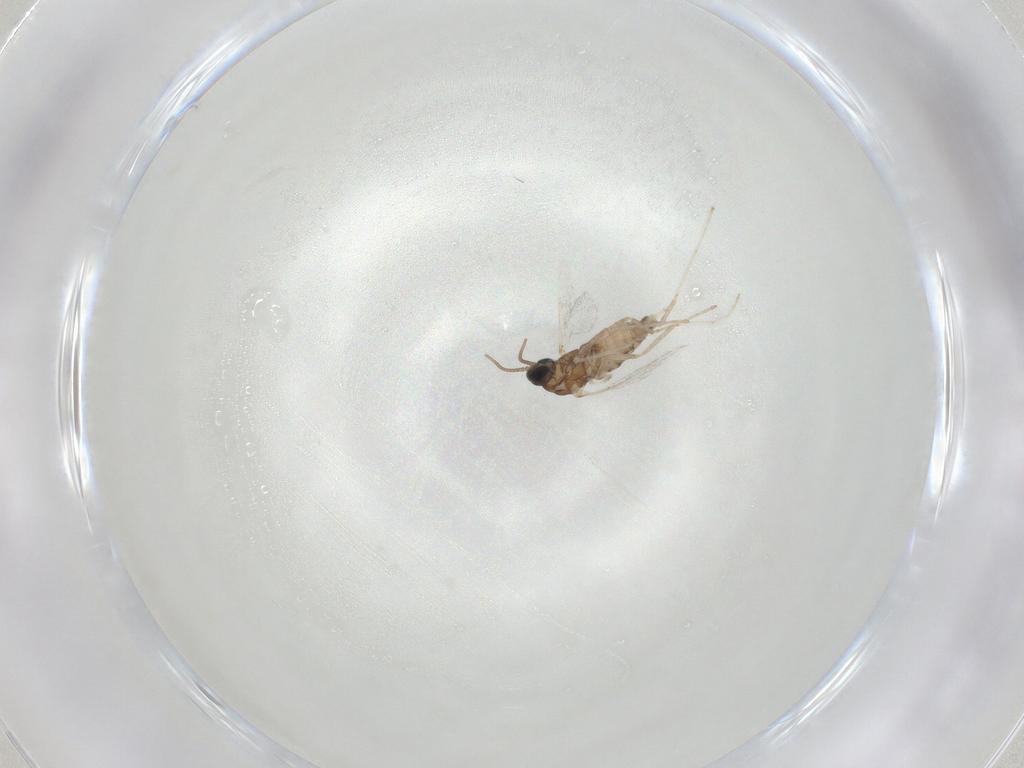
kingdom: Animalia
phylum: Arthropoda
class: Insecta
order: Diptera
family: Cecidomyiidae
